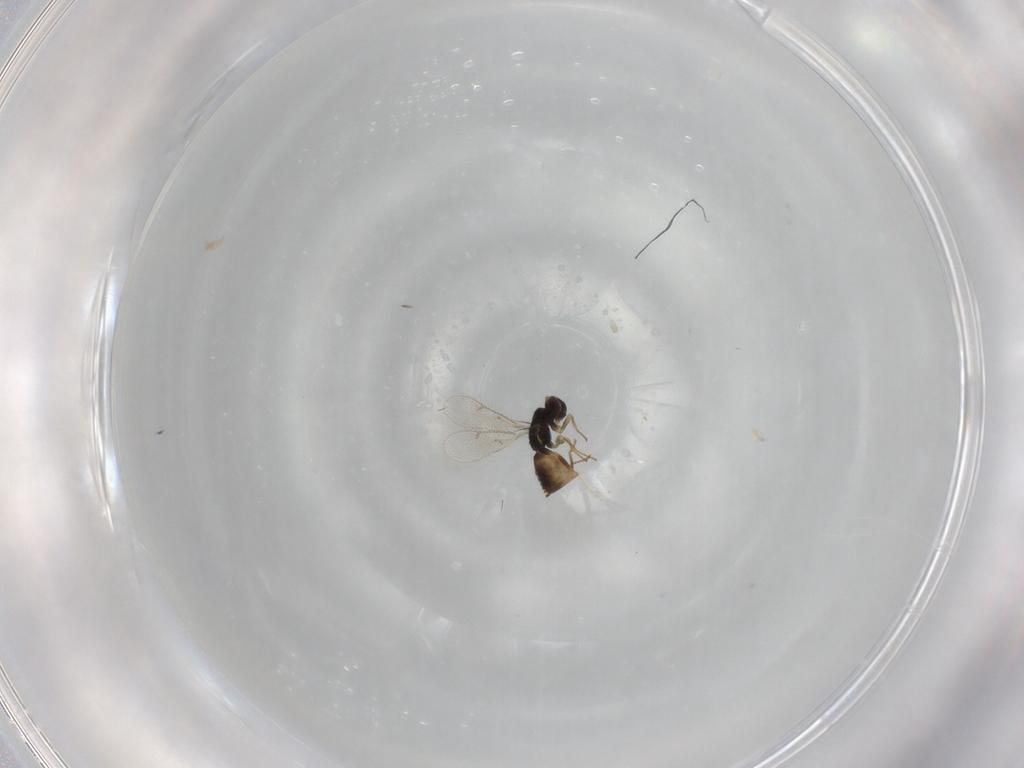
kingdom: Animalia
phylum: Arthropoda
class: Insecta
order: Hymenoptera
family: Eulophidae
